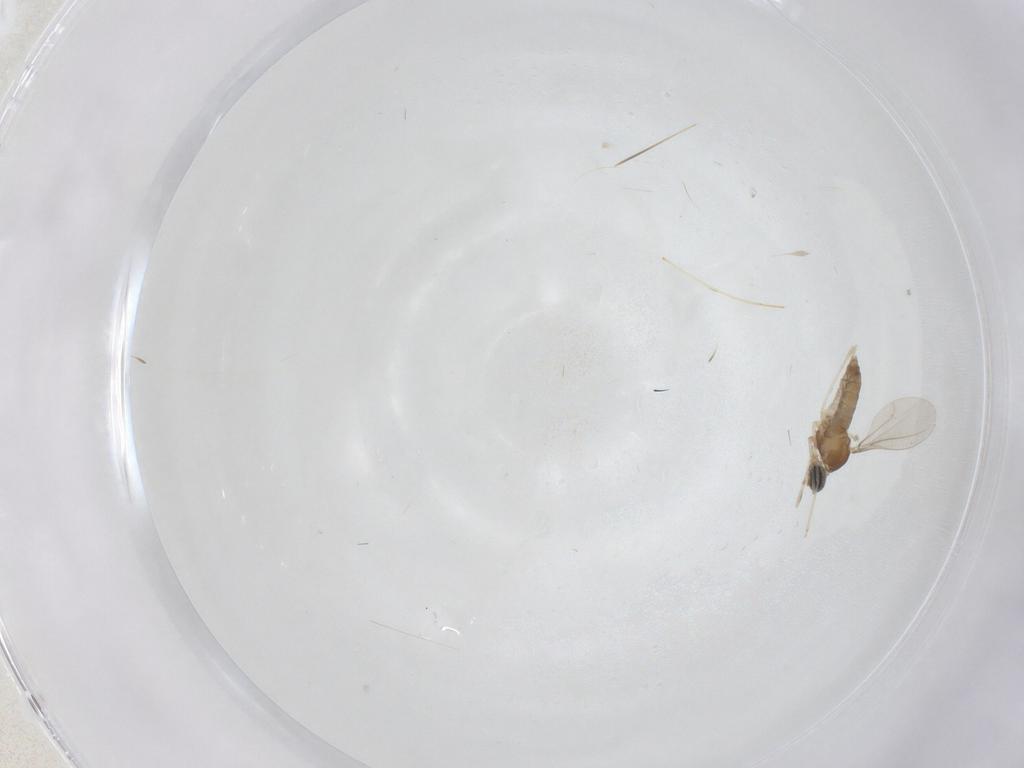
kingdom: Animalia
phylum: Arthropoda
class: Insecta
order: Diptera
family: Cecidomyiidae
